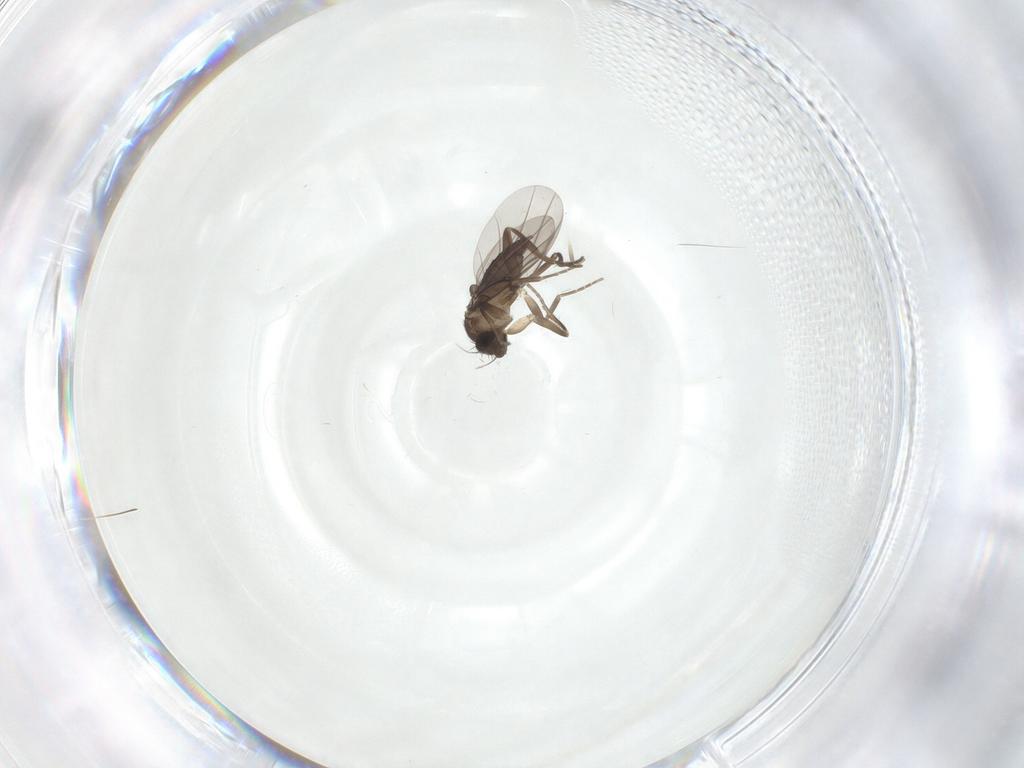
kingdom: Animalia
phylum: Arthropoda
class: Insecta
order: Diptera
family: Phoridae
